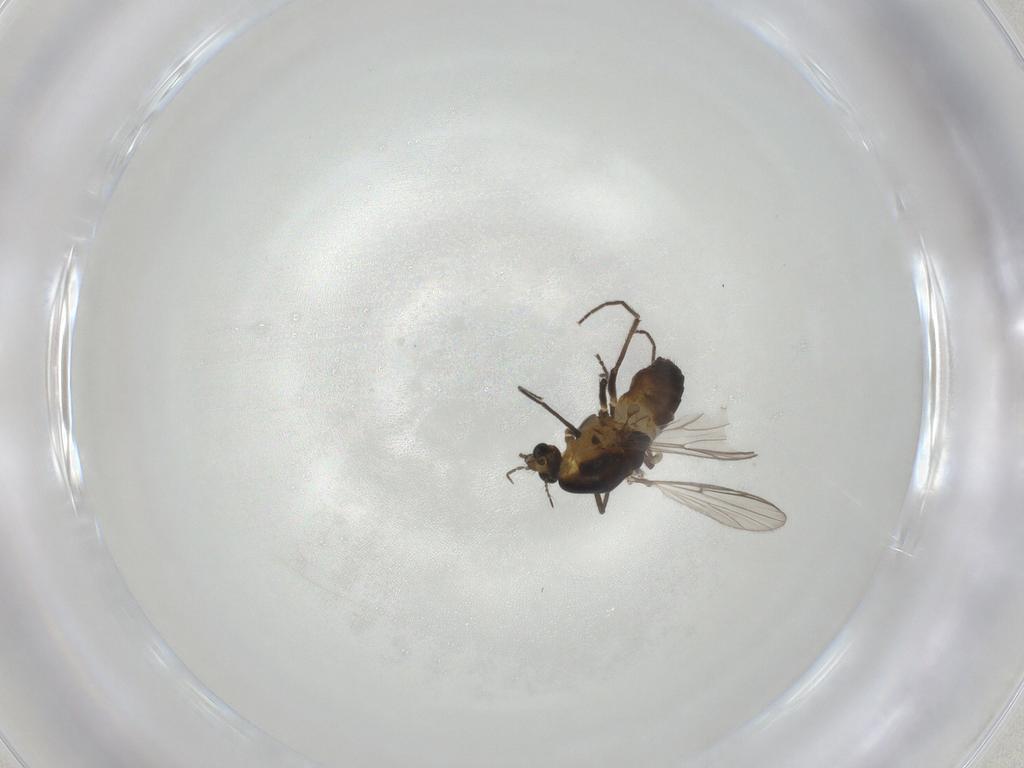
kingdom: Animalia
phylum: Arthropoda
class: Insecta
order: Diptera
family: Chironomidae
